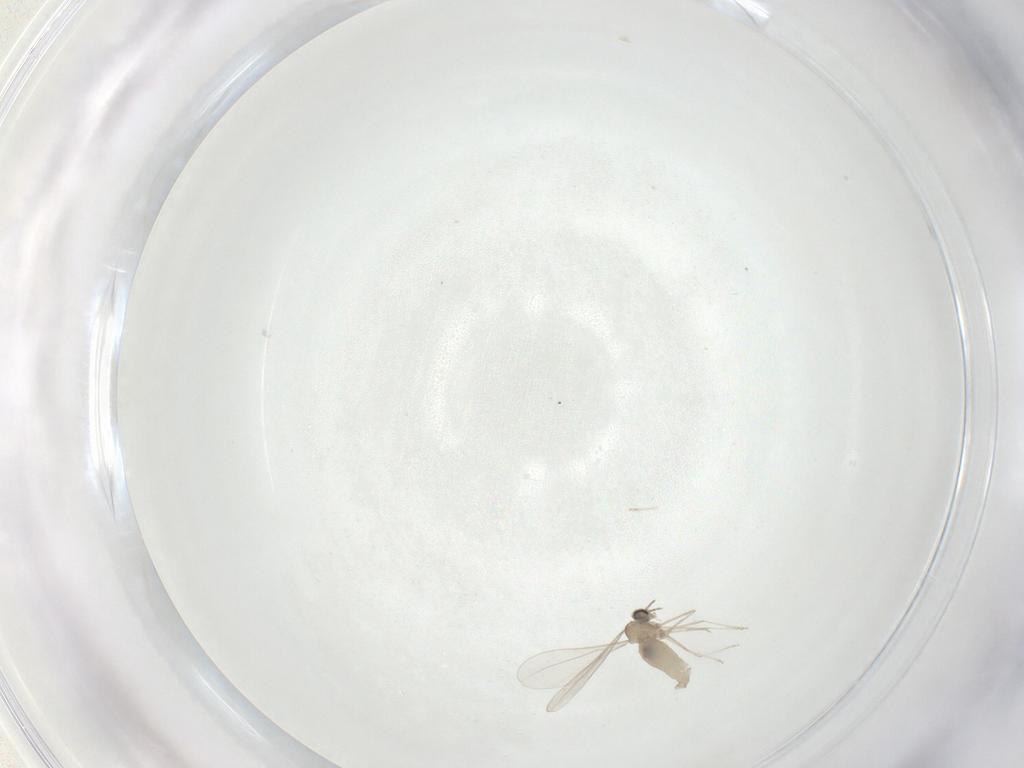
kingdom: Animalia
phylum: Arthropoda
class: Insecta
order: Diptera
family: Cecidomyiidae
